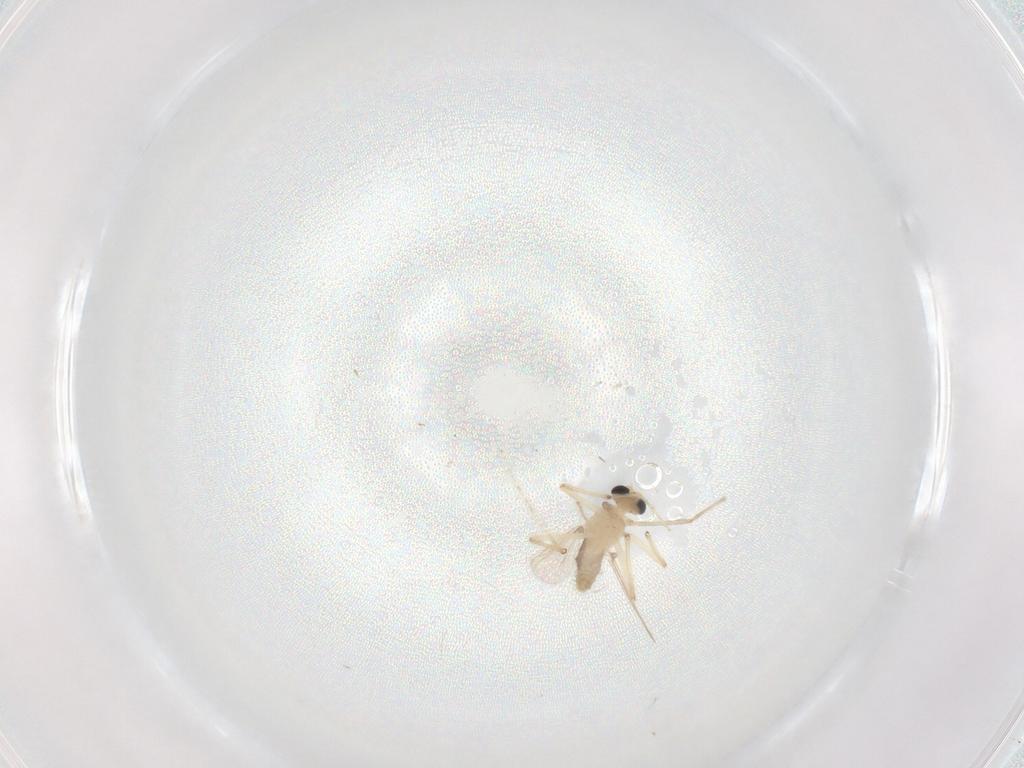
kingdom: Animalia
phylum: Arthropoda
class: Insecta
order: Diptera
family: Chironomidae
